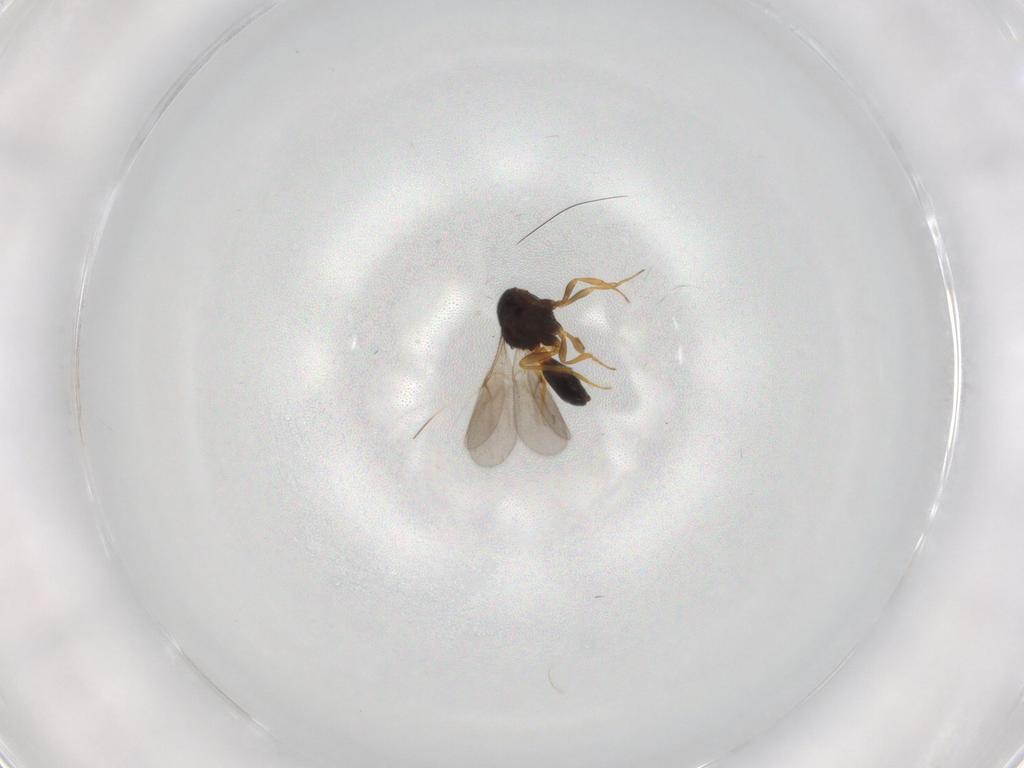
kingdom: Animalia
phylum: Arthropoda
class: Insecta
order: Hymenoptera
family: Scelionidae
